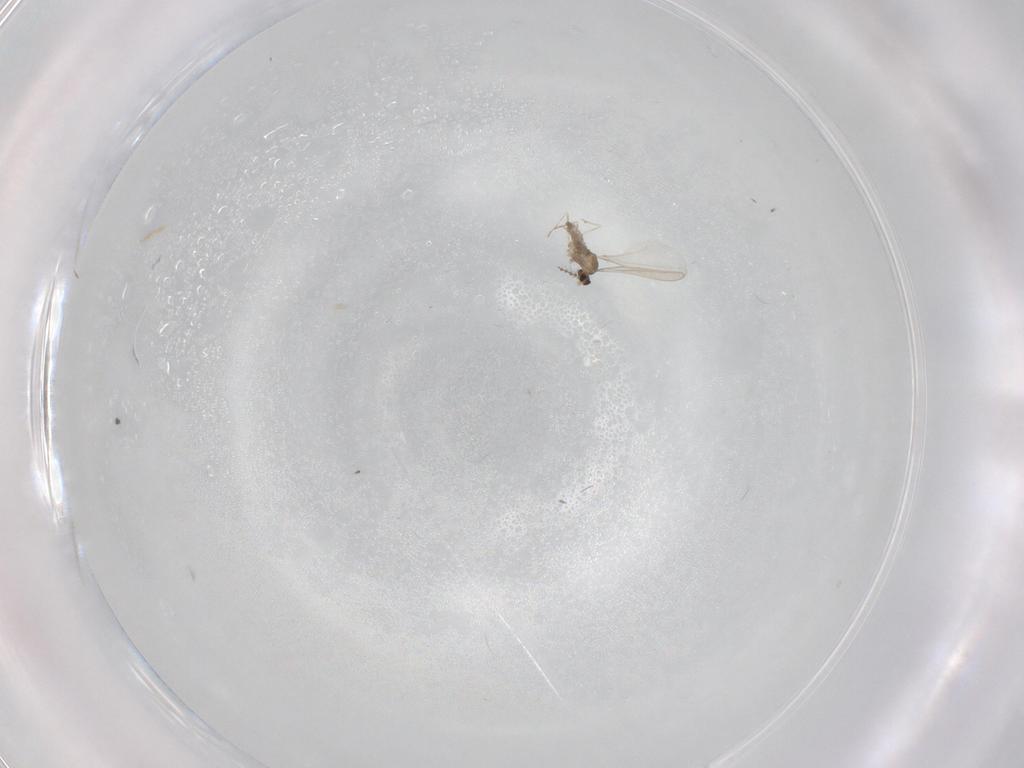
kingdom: Animalia
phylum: Arthropoda
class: Insecta
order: Diptera
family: Cecidomyiidae
